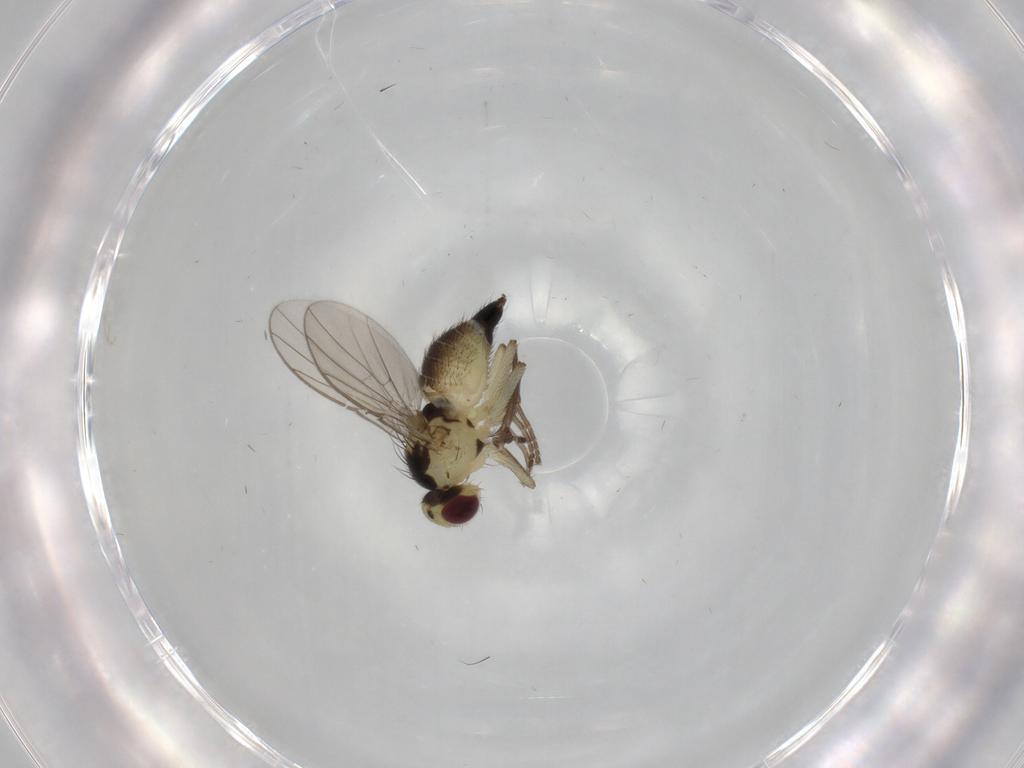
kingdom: Animalia
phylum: Arthropoda
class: Insecta
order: Diptera
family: Agromyzidae
